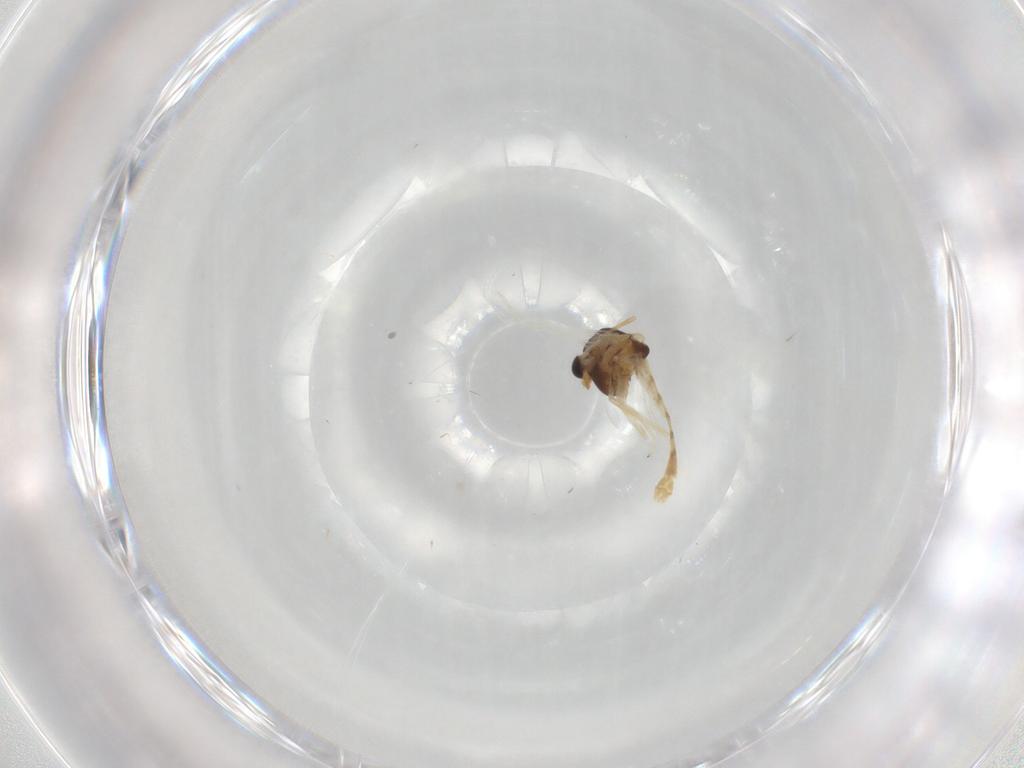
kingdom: Animalia
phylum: Arthropoda
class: Insecta
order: Diptera
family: Chironomidae
